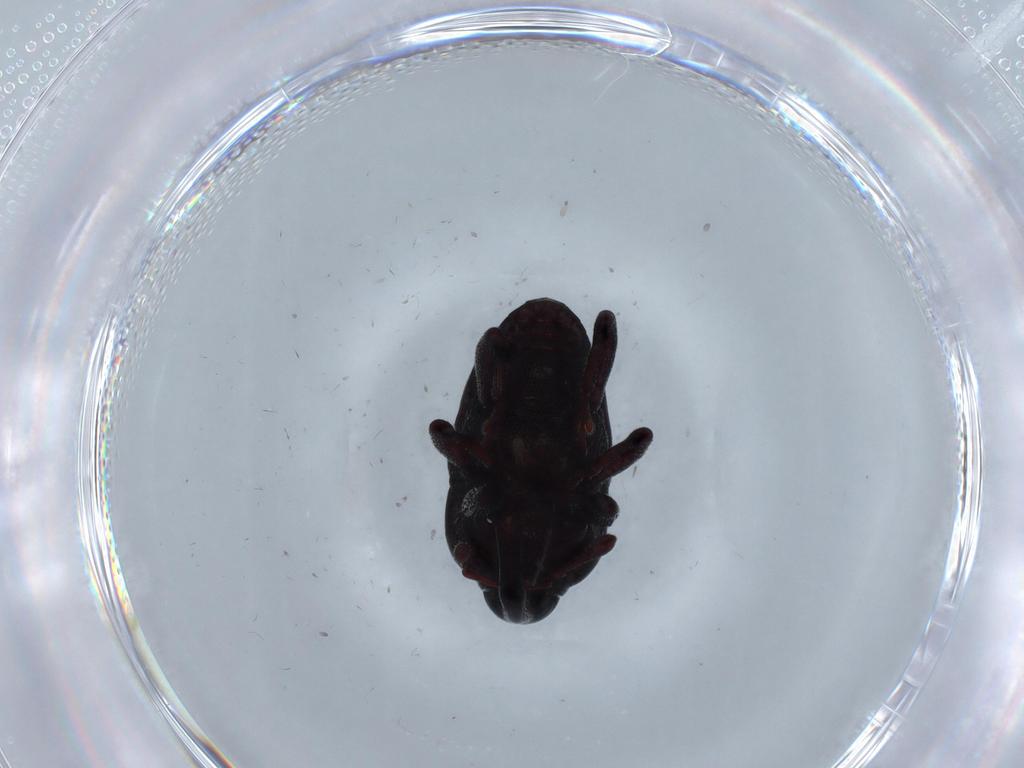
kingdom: Animalia
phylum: Arthropoda
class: Insecta
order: Coleoptera
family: Curculionidae
